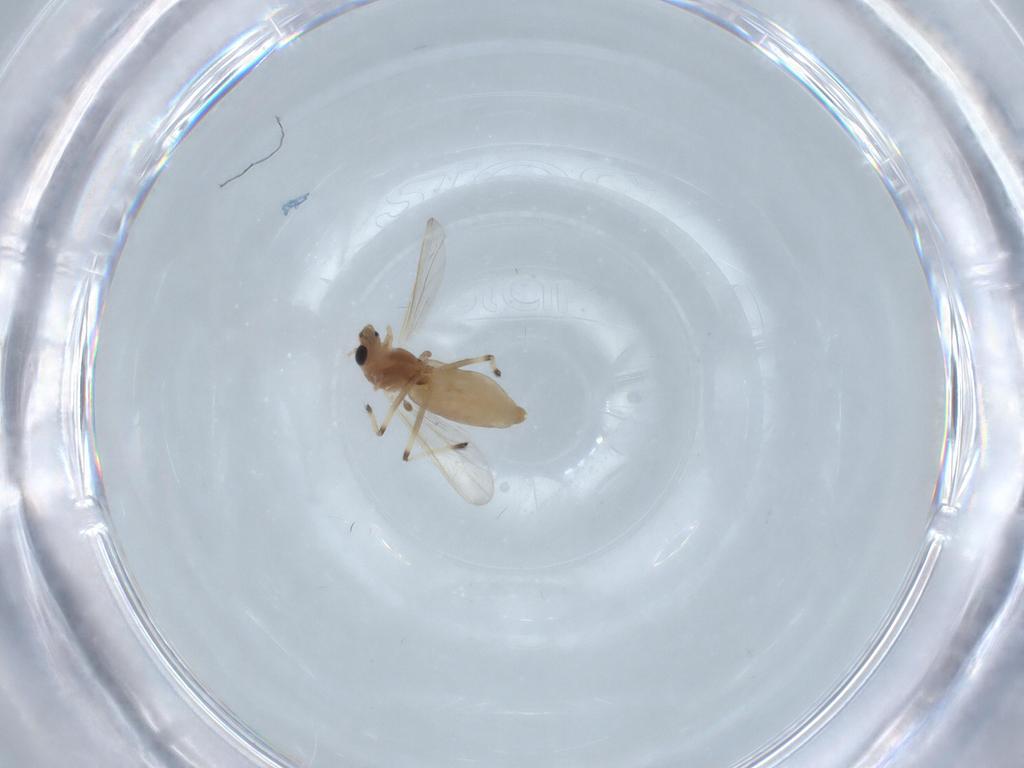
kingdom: Animalia
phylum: Arthropoda
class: Insecta
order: Diptera
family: Chironomidae
